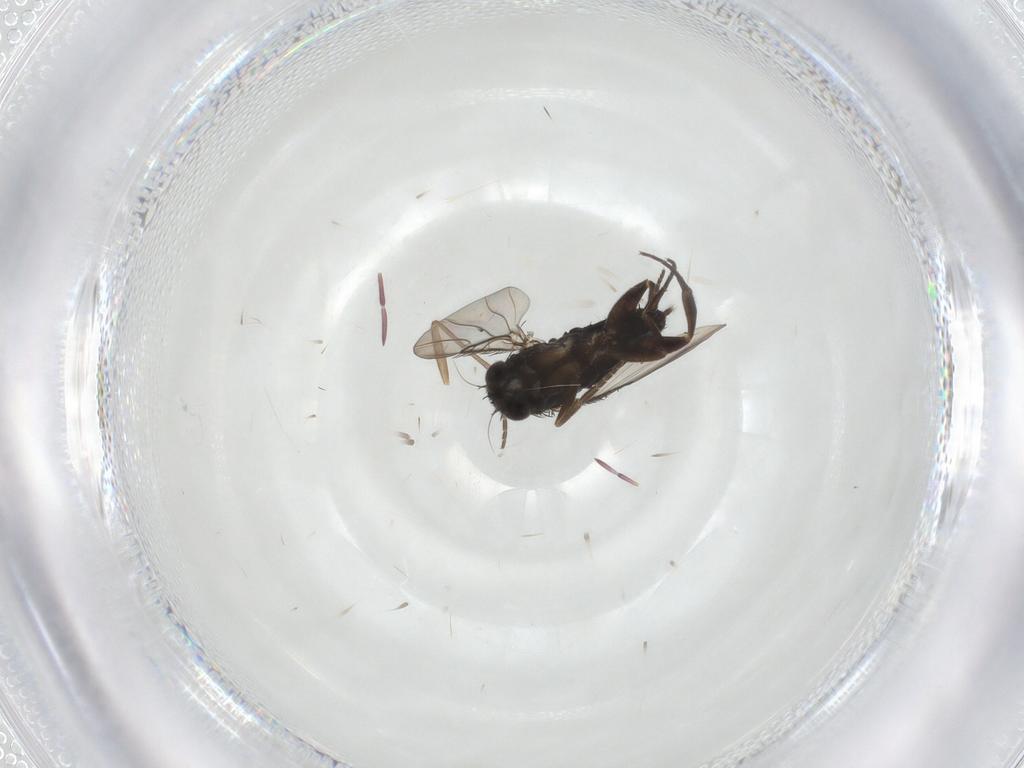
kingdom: Animalia
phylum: Arthropoda
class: Insecta
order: Diptera
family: Phoridae
